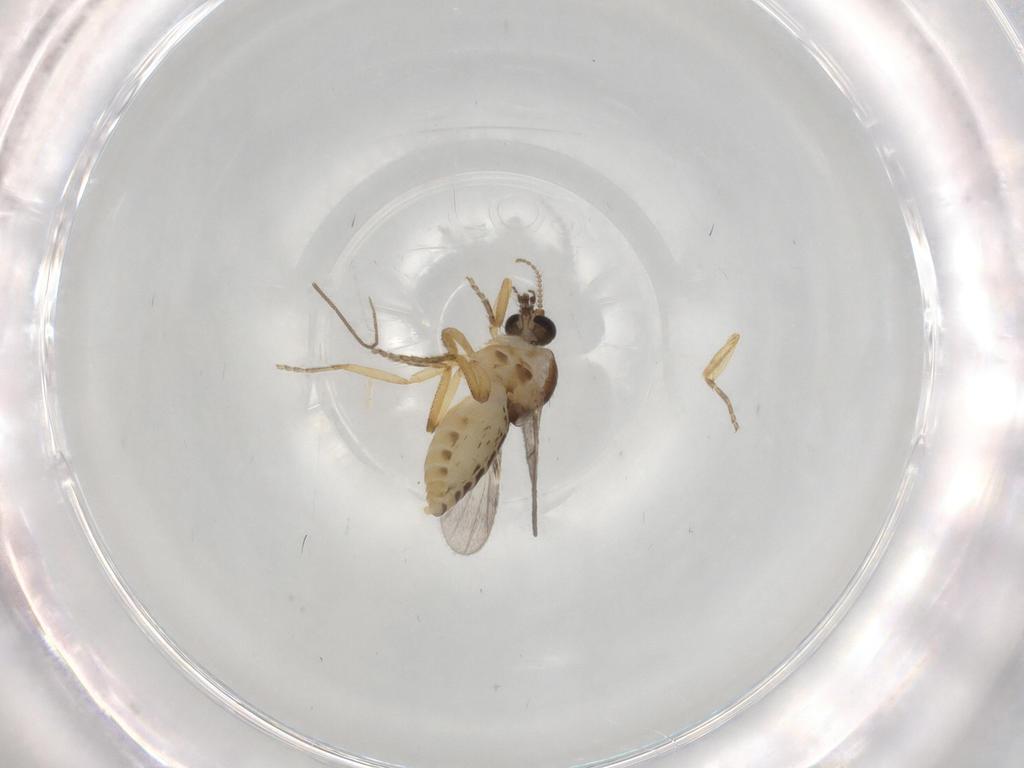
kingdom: Animalia
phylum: Arthropoda
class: Insecta
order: Diptera
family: Ceratopogonidae
